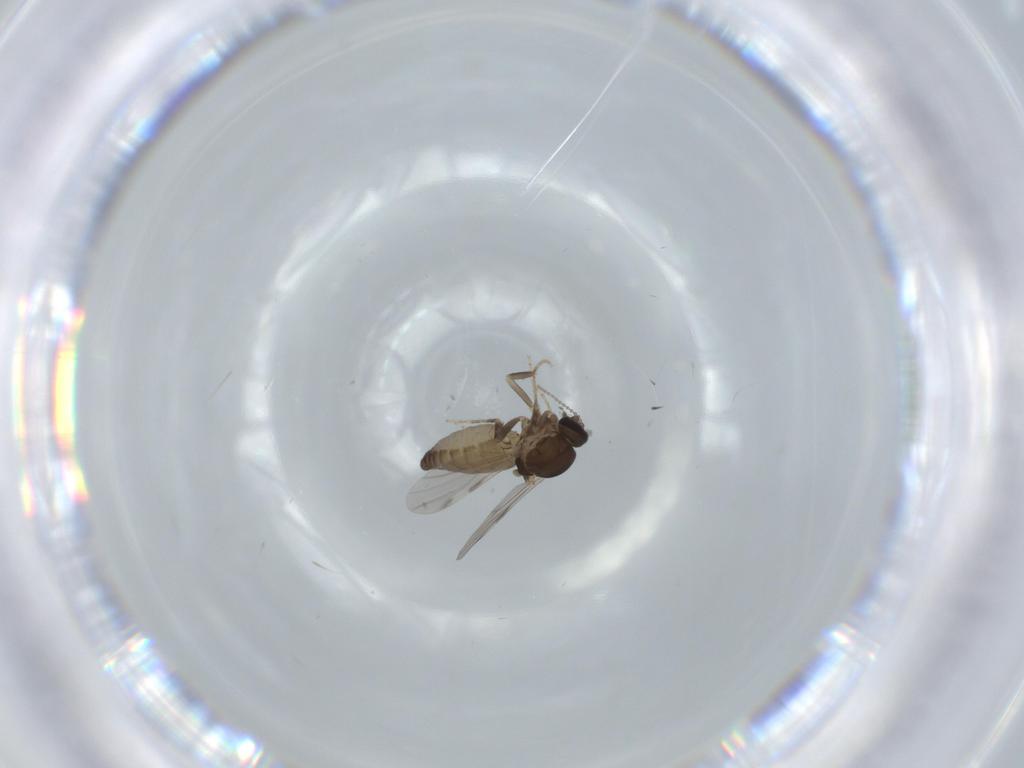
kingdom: Animalia
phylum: Arthropoda
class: Insecta
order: Diptera
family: Ceratopogonidae
